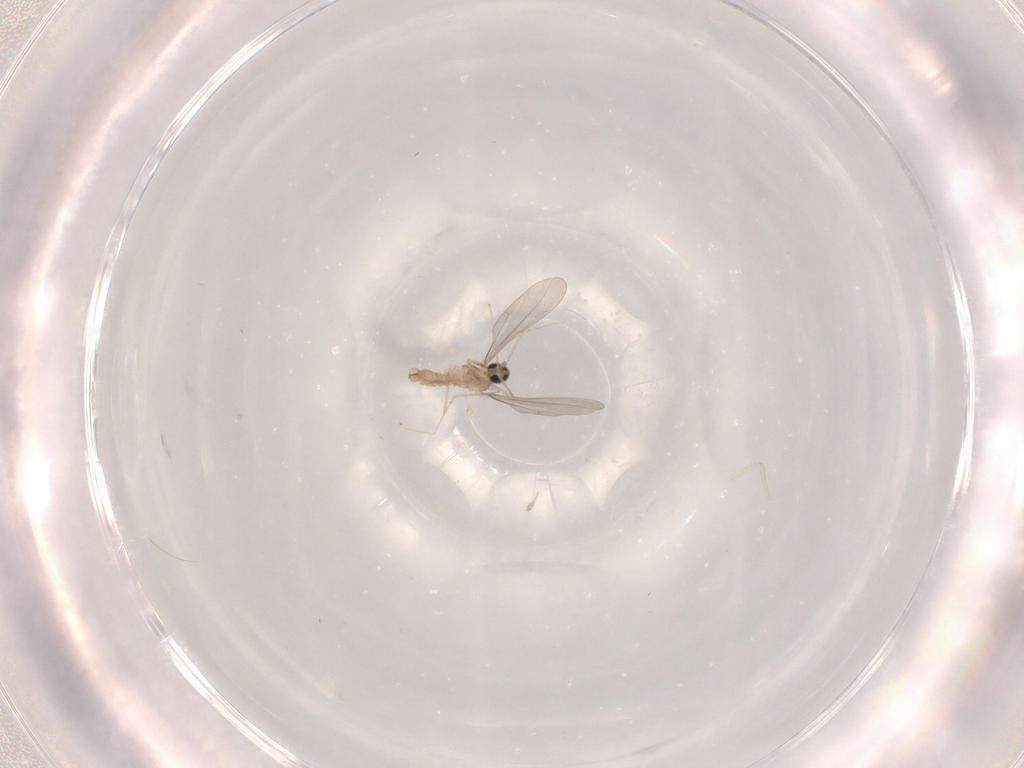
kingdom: Animalia
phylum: Arthropoda
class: Insecta
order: Diptera
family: Cecidomyiidae
